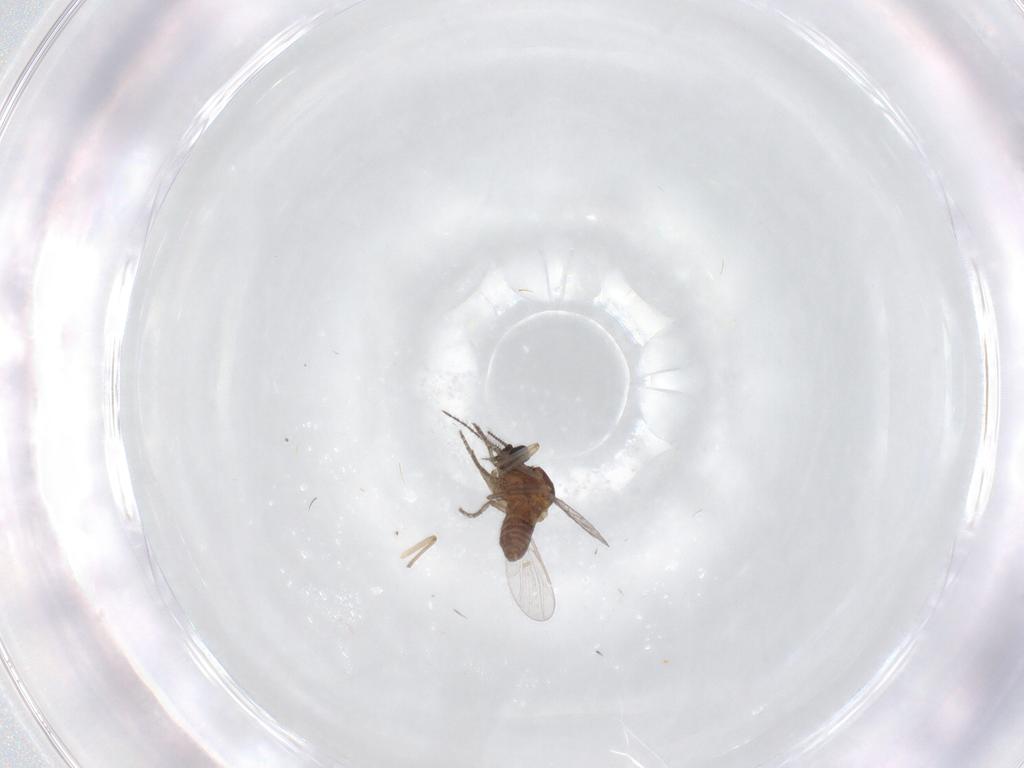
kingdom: Animalia
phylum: Arthropoda
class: Insecta
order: Diptera
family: Chironomidae
